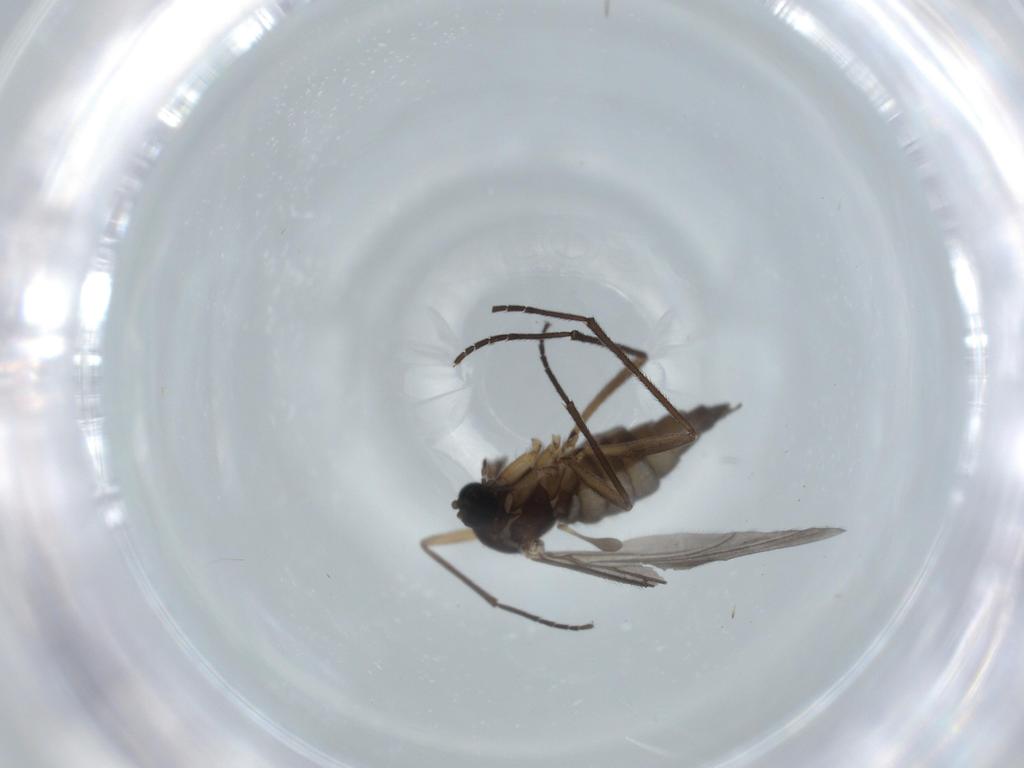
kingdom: Animalia
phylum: Arthropoda
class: Insecta
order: Diptera
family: Sciaridae
